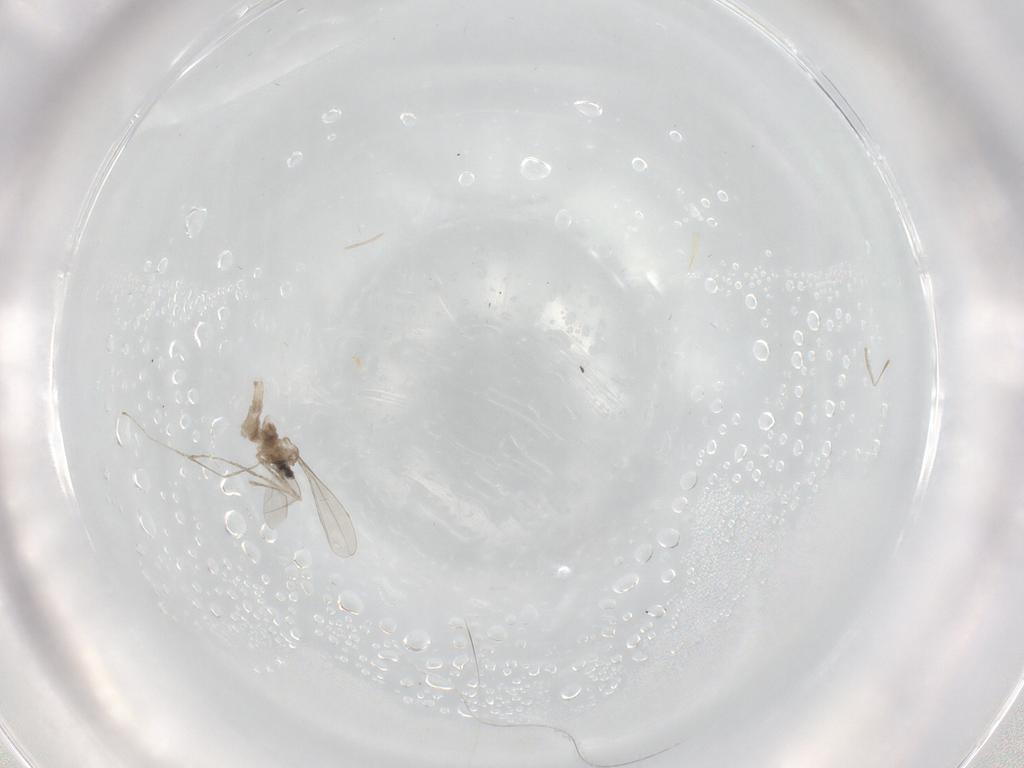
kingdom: Animalia
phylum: Arthropoda
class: Insecta
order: Diptera
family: Cecidomyiidae
